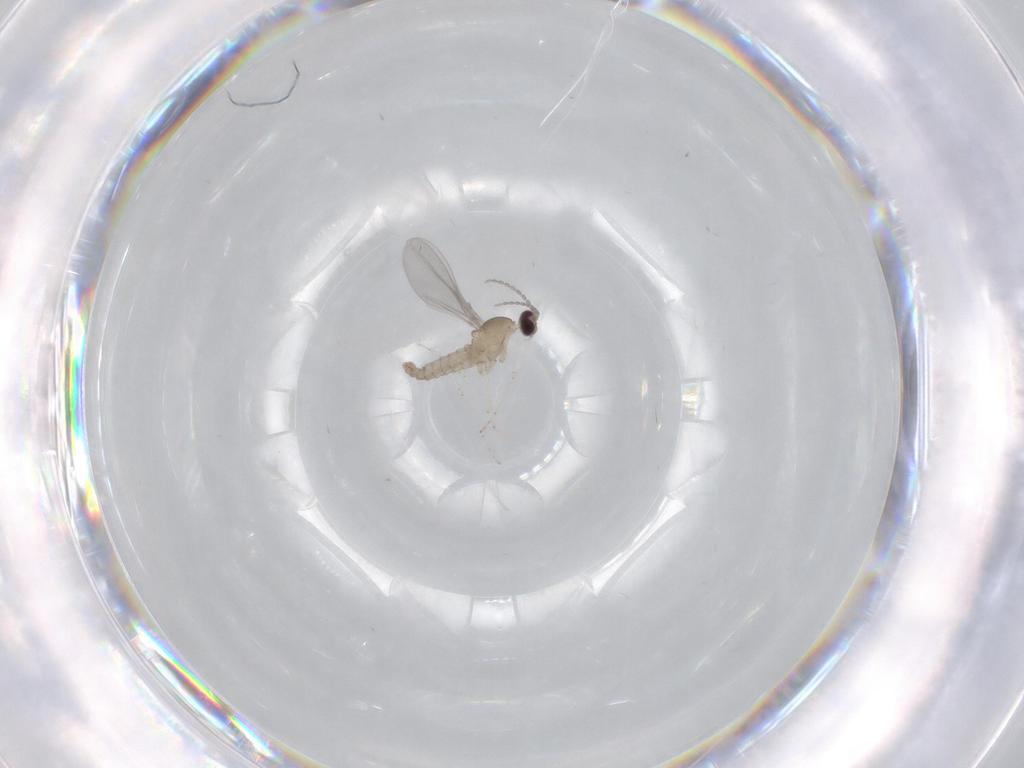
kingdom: Animalia
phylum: Arthropoda
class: Insecta
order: Diptera
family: Cecidomyiidae
